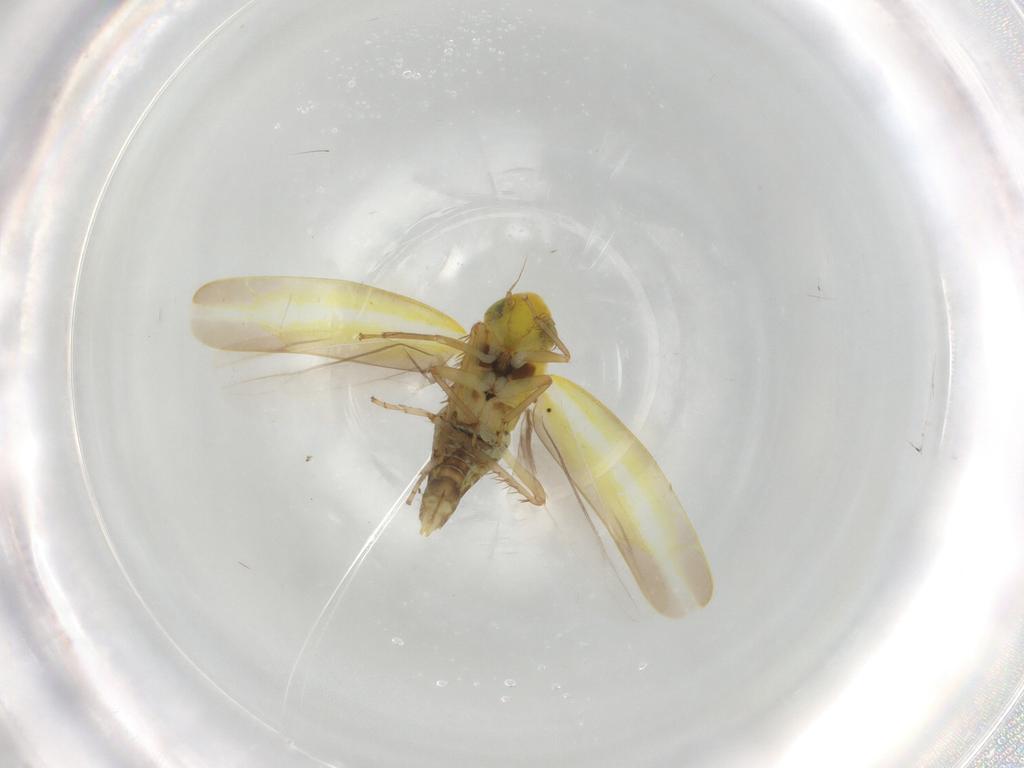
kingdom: Animalia
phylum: Arthropoda
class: Insecta
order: Hemiptera
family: Cicadellidae
